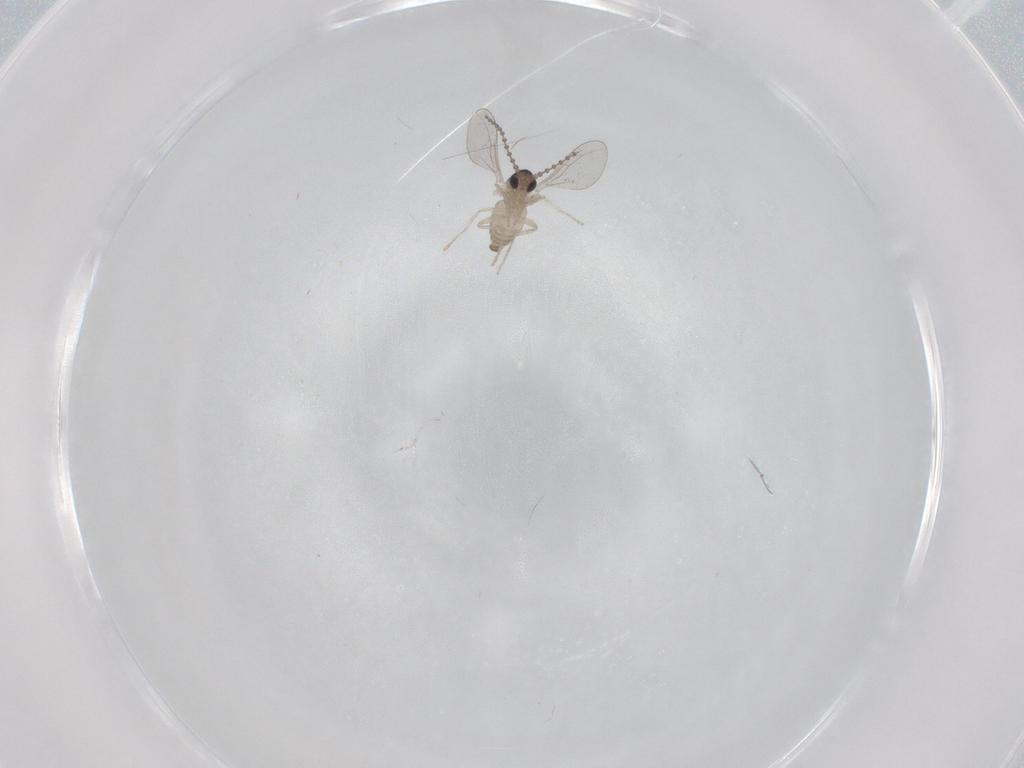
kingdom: Animalia
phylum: Arthropoda
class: Insecta
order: Diptera
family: Cecidomyiidae
